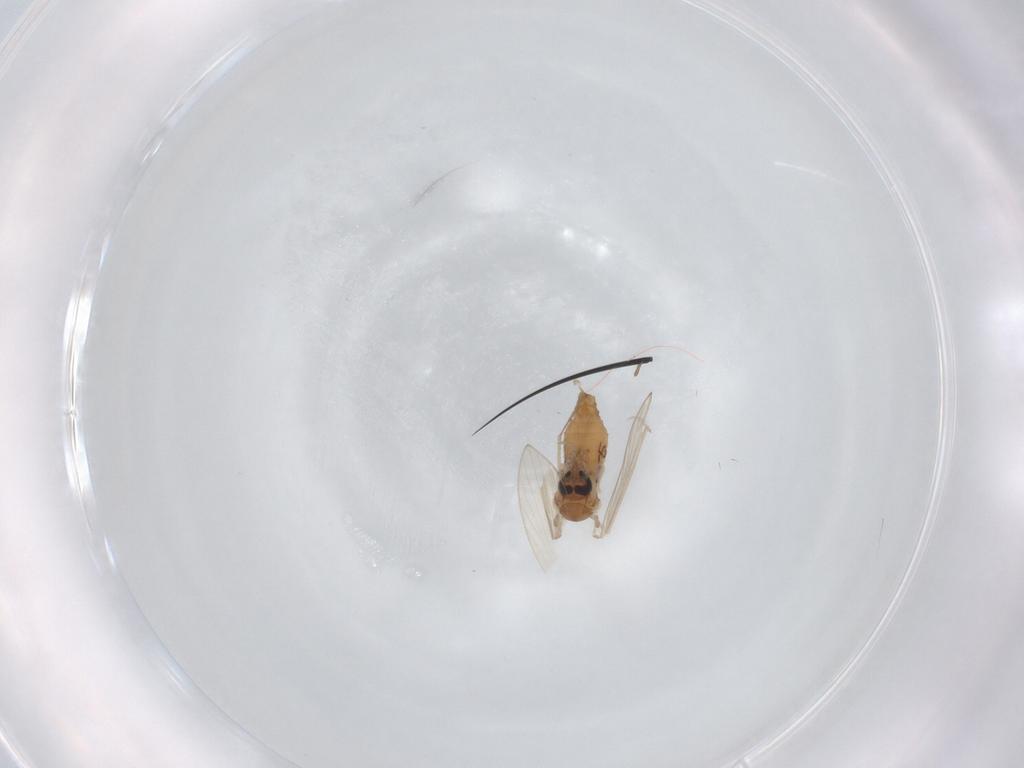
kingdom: Animalia
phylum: Arthropoda
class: Insecta
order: Diptera
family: Psychodidae
